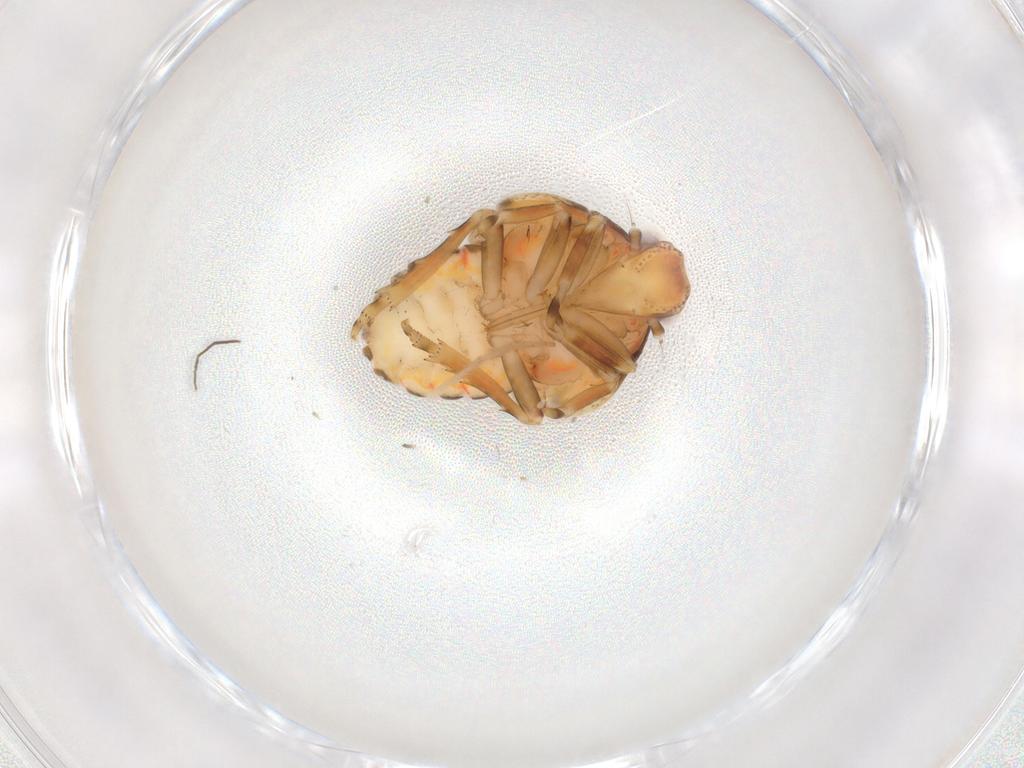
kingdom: Animalia
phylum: Arthropoda
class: Insecta
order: Hemiptera
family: Flatidae
